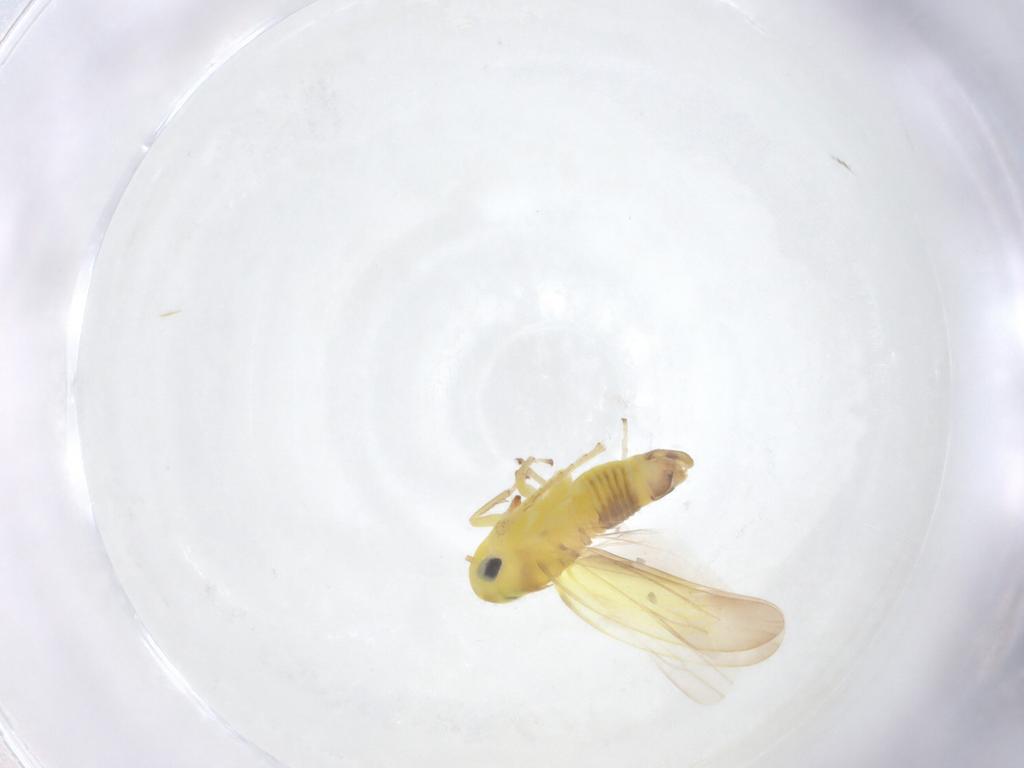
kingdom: Animalia
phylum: Arthropoda
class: Insecta
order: Hemiptera
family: Cicadellidae
